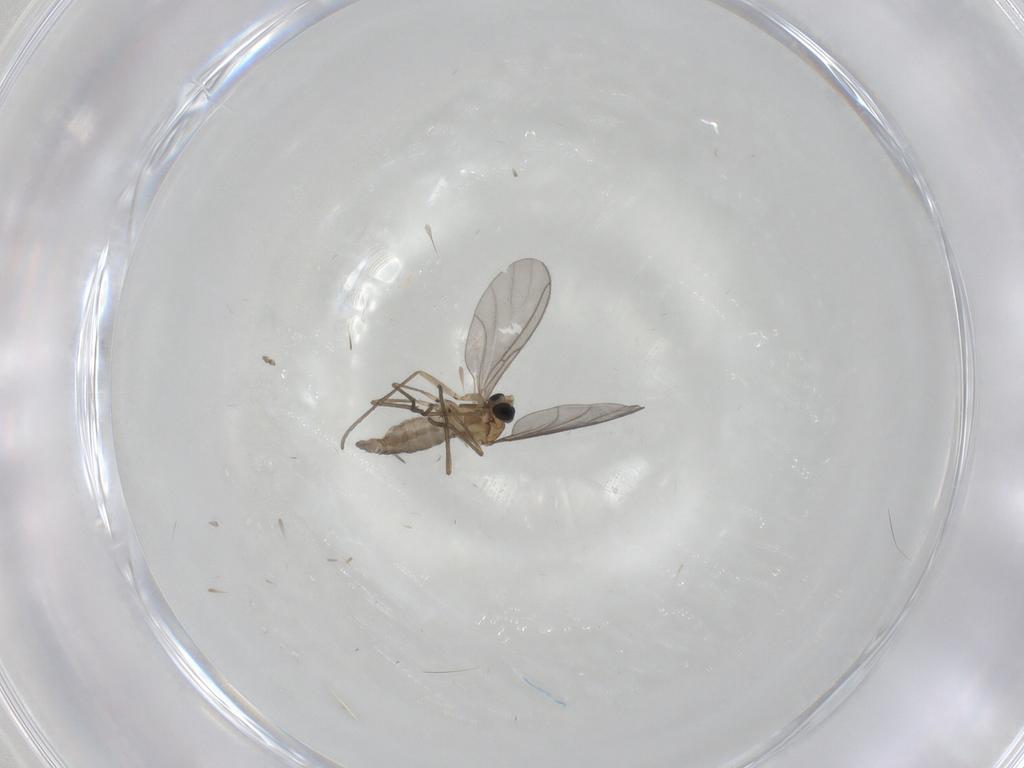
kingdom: Animalia
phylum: Arthropoda
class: Insecta
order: Diptera
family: Sciaridae
